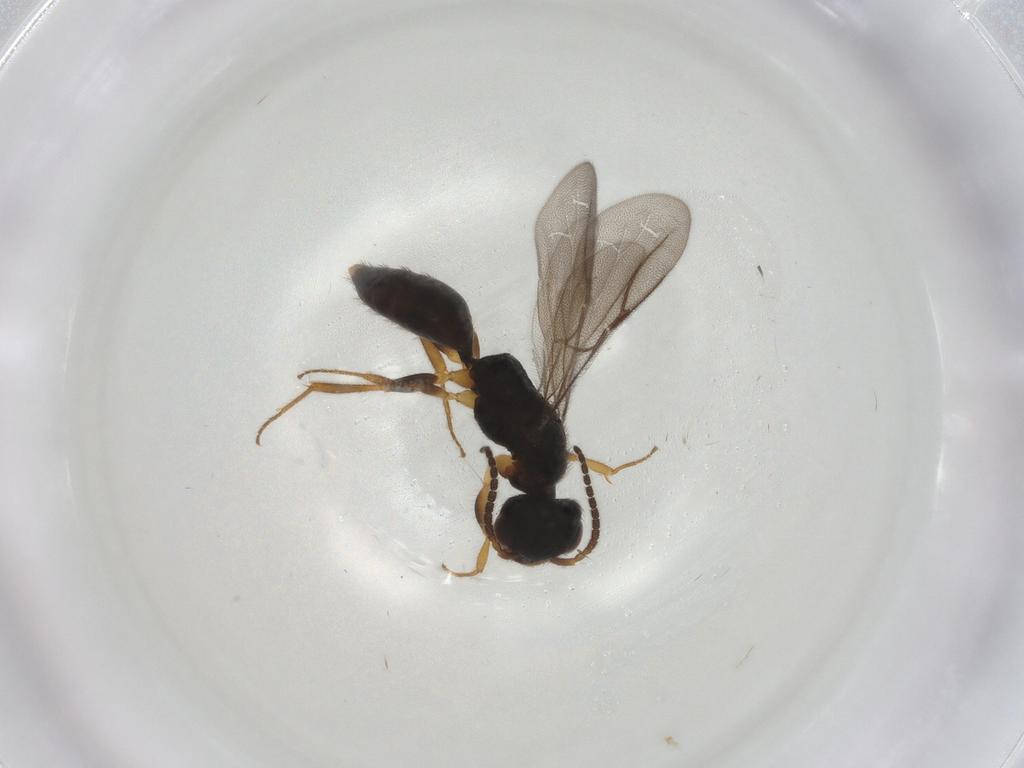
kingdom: Animalia
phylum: Arthropoda
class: Insecta
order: Hymenoptera
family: Bethylidae
